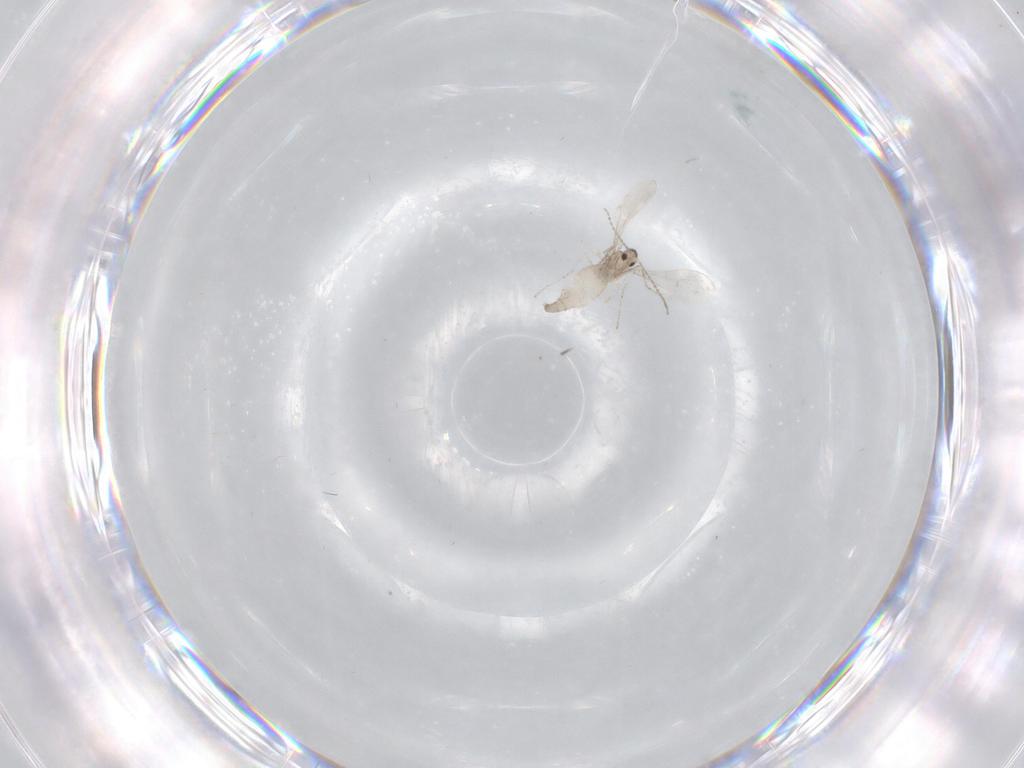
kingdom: Animalia
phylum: Arthropoda
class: Insecta
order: Diptera
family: Cecidomyiidae
